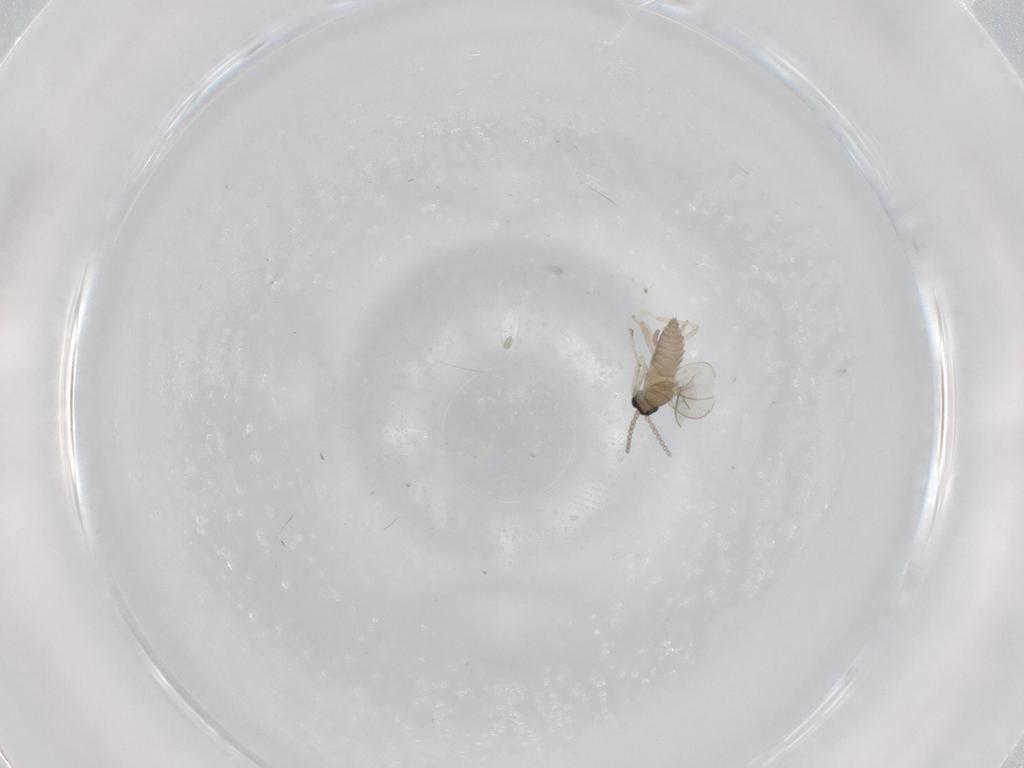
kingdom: Animalia
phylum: Arthropoda
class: Insecta
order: Diptera
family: Cecidomyiidae
